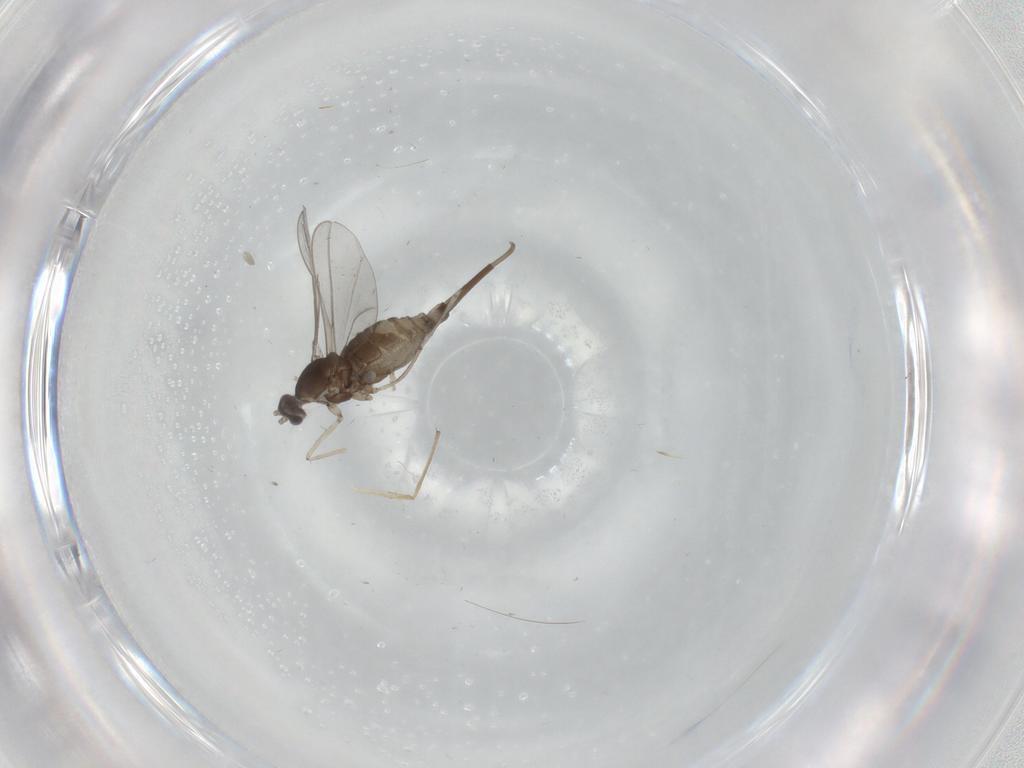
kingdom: Animalia
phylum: Arthropoda
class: Insecta
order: Diptera
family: Cecidomyiidae
